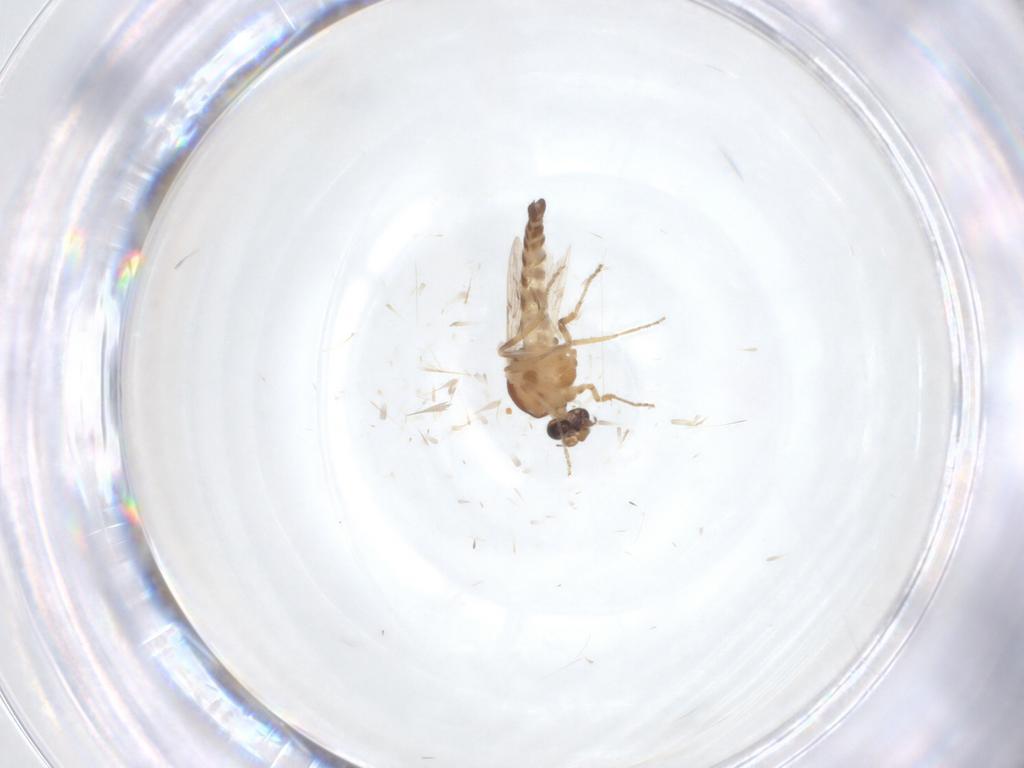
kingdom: Animalia
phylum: Arthropoda
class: Insecta
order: Diptera
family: Ceratopogonidae
